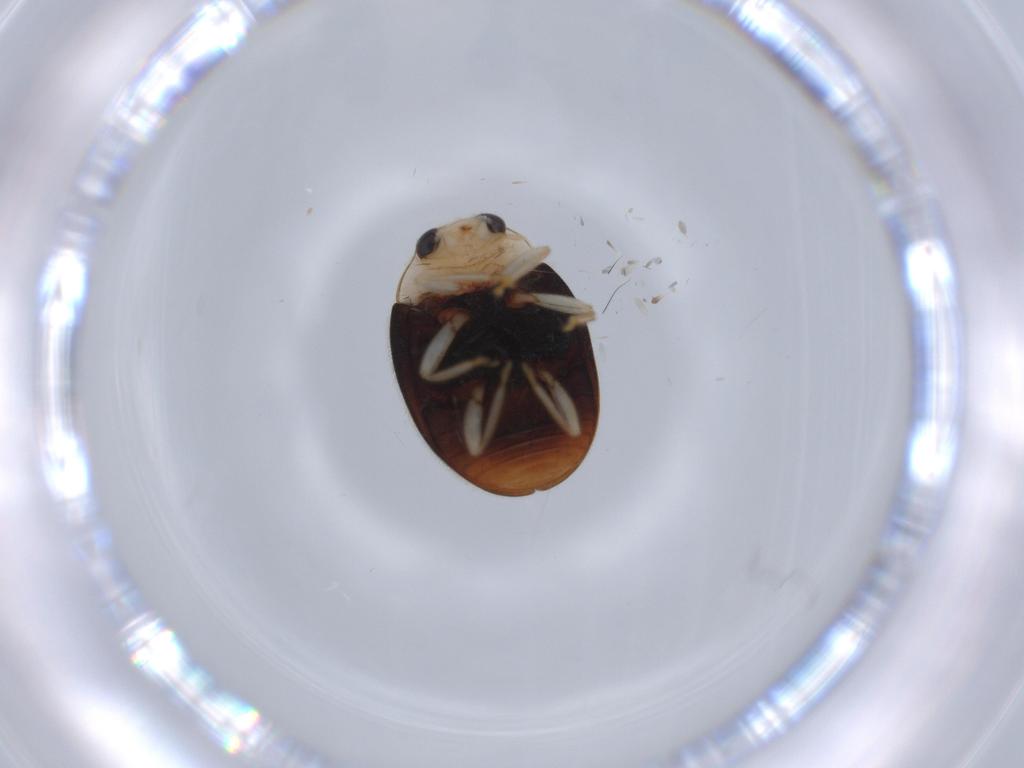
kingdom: Animalia
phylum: Arthropoda
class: Insecta
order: Coleoptera
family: Coccinellidae
